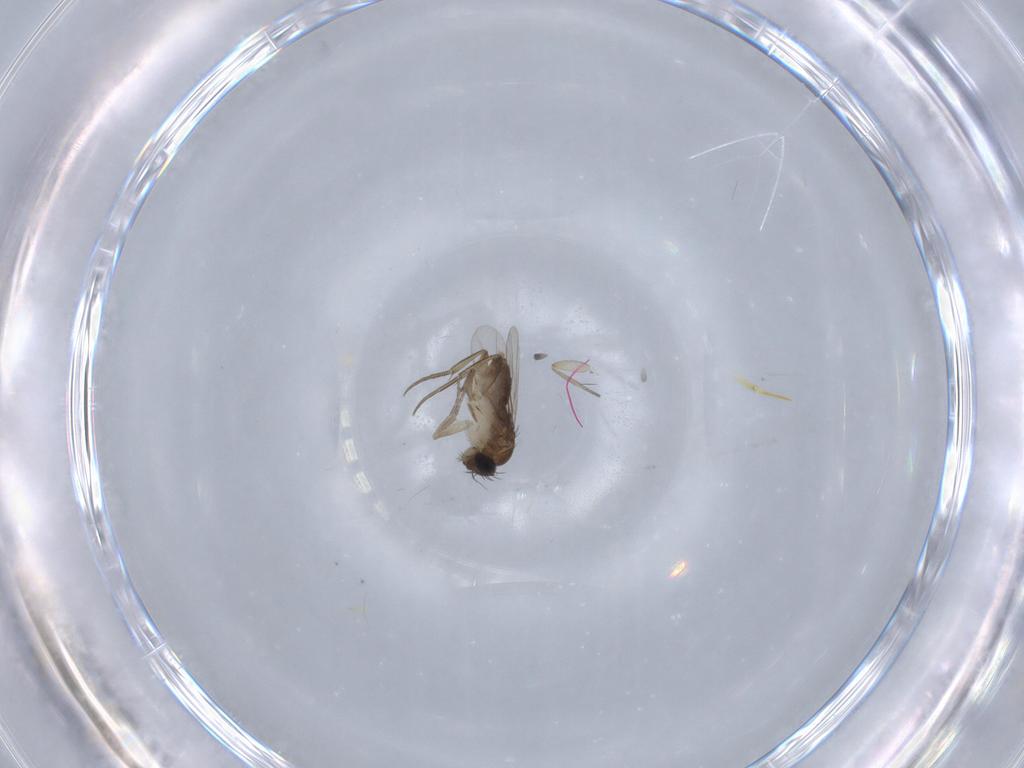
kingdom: Animalia
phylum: Arthropoda
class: Insecta
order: Diptera
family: Phoridae
